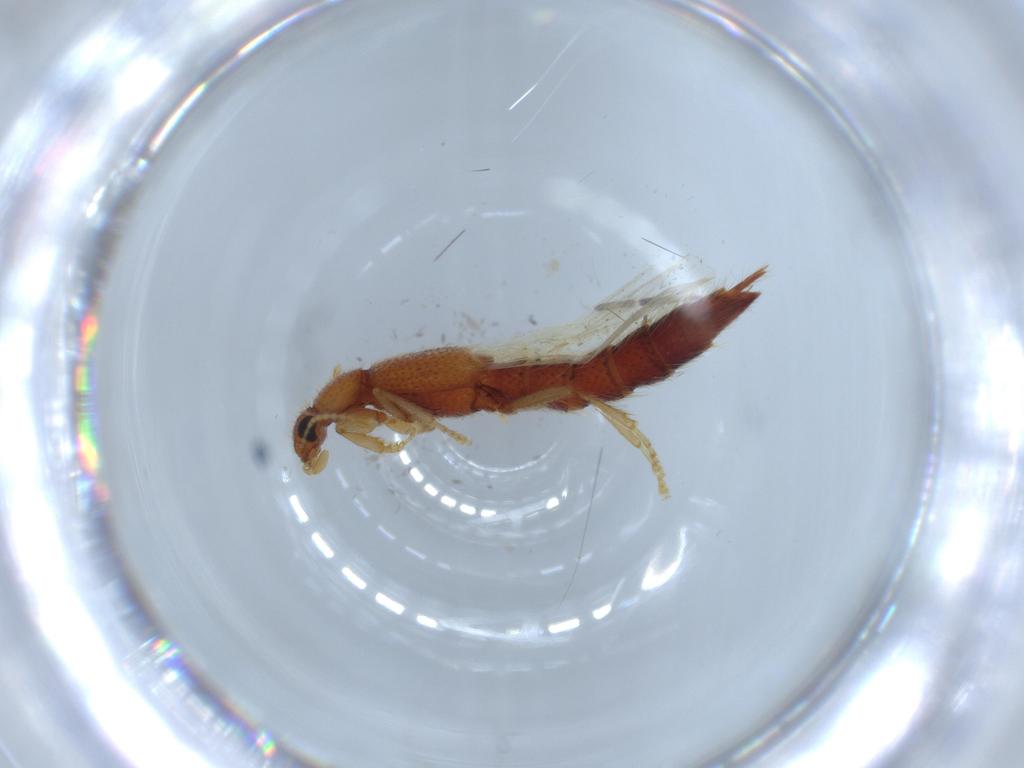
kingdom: Animalia
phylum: Arthropoda
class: Insecta
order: Coleoptera
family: Staphylinidae
